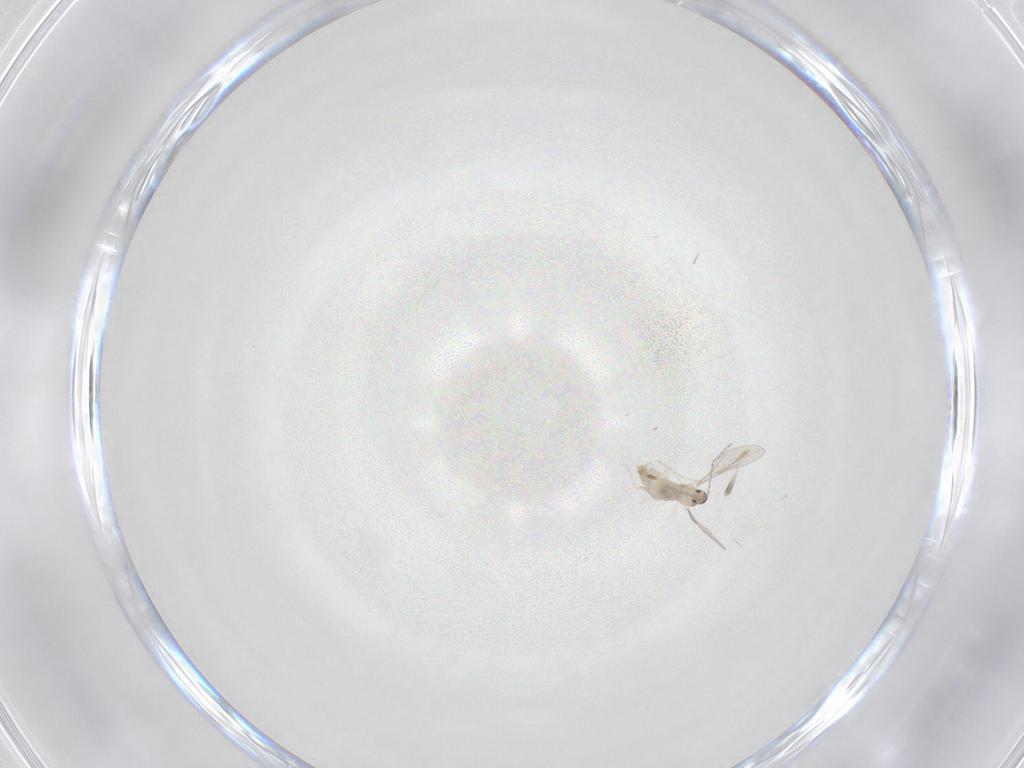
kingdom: Animalia
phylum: Arthropoda
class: Insecta
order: Diptera
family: Cecidomyiidae
